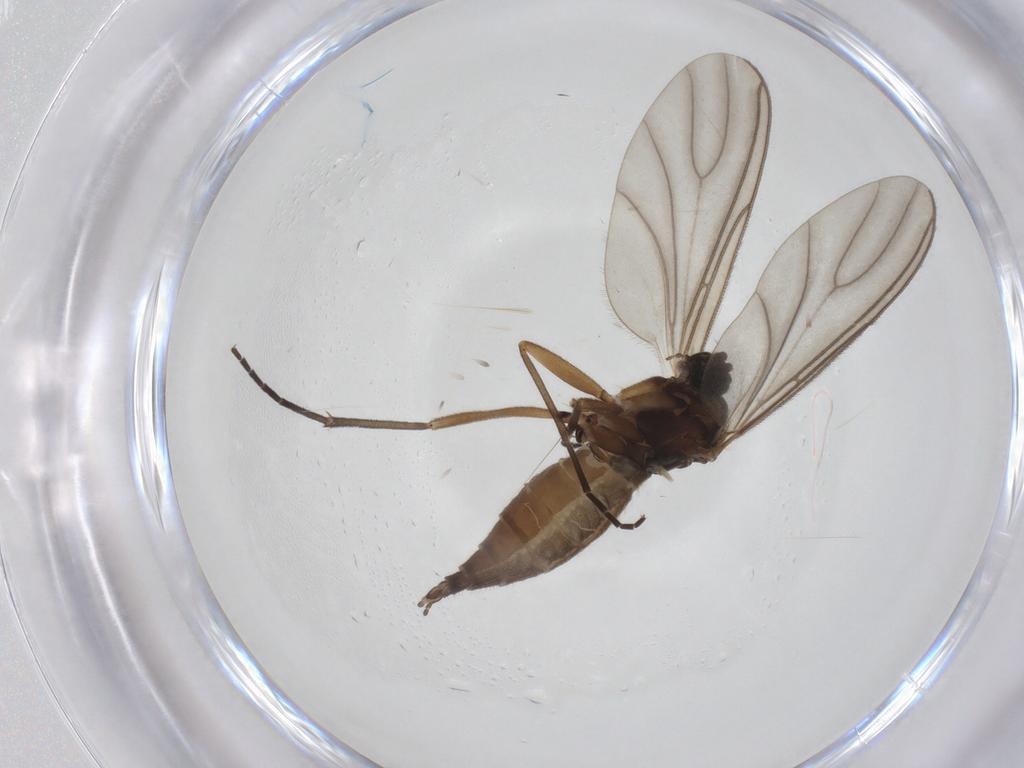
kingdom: Animalia
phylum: Arthropoda
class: Insecta
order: Diptera
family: Sciaridae
